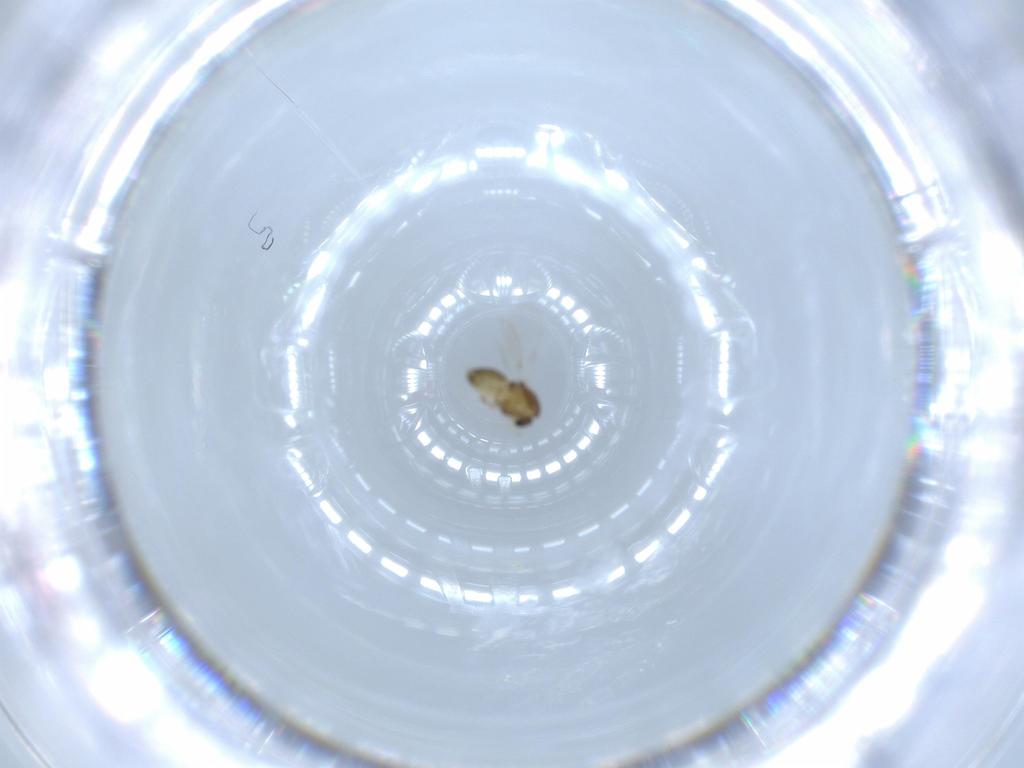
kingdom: Animalia
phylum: Arthropoda
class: Insecta
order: Diptera
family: Chironomidae
